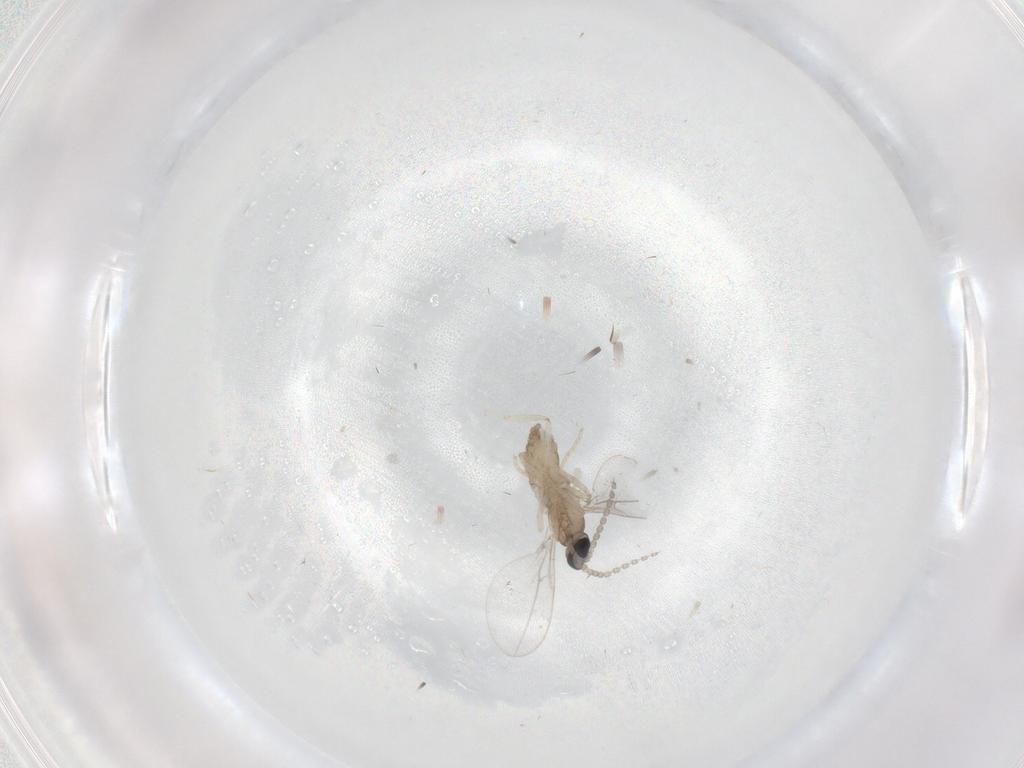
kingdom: Animalia
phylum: Arthropoda
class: Insecta
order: Diptera
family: Cecidomyiidae
